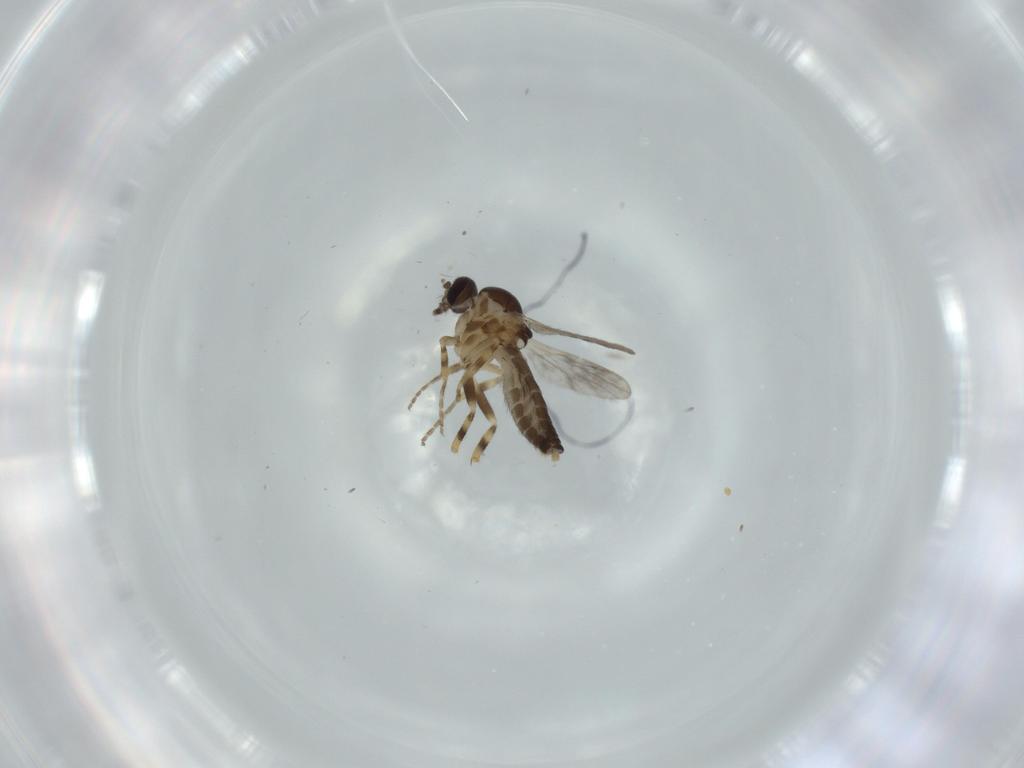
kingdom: Animalia
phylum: Arthropoda
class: Insecta
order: Diptera
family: Mycetophilidae
